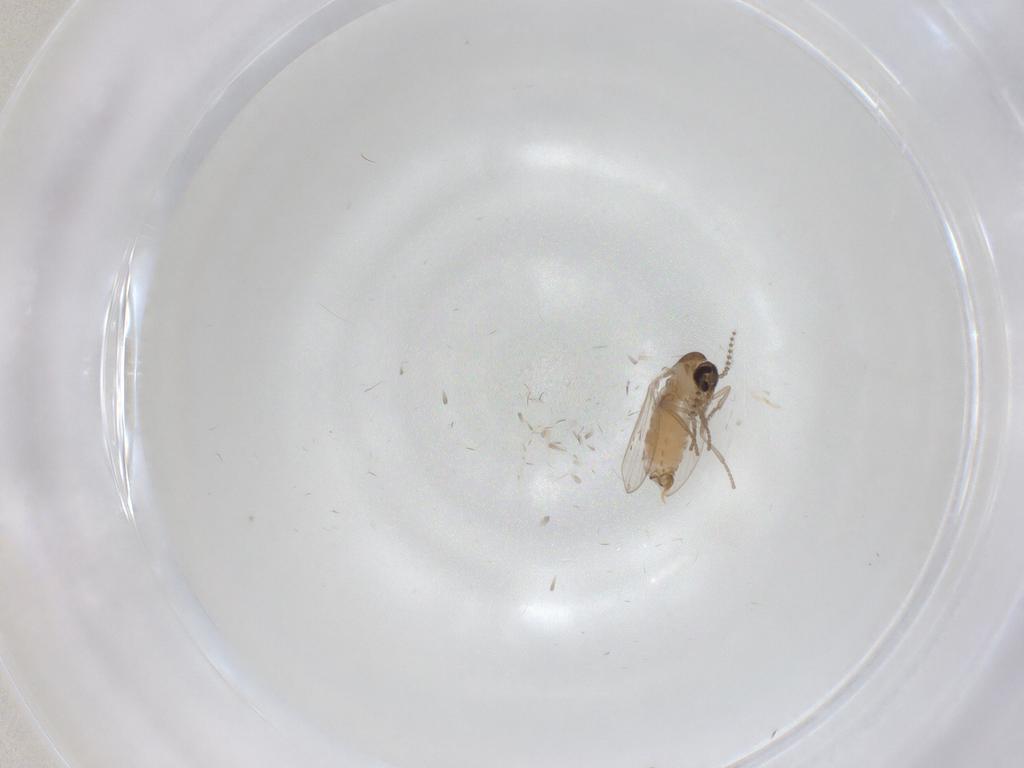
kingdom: Animalia
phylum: Arthropoda
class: Insecta
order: Diptera
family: Psychodidae
